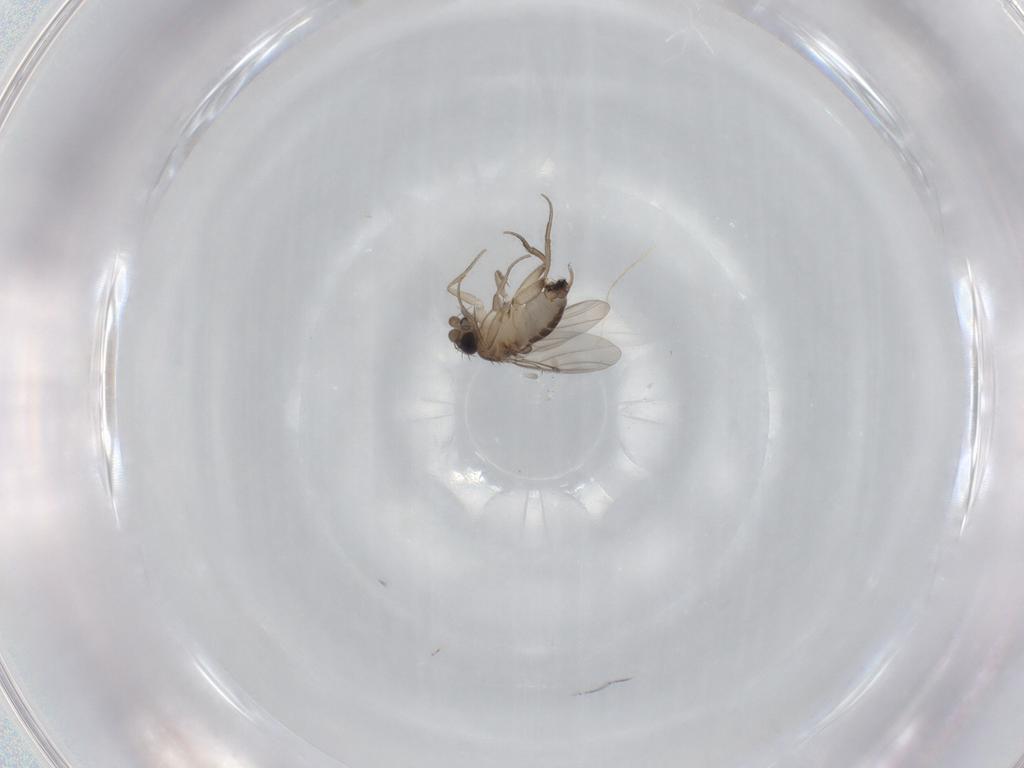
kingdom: Animalia
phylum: Arthropoda
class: Insecta
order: Diptera
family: Phoridae
